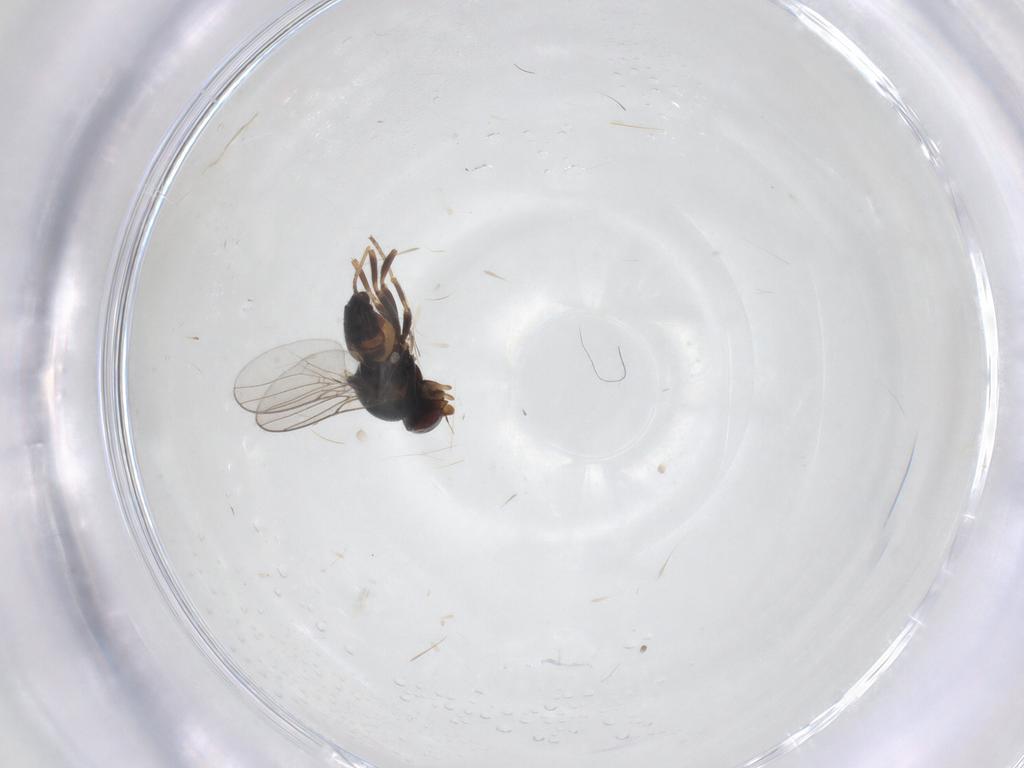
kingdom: Animalia
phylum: Arthropoda
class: Insecta
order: Diptera
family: Chloropidae
